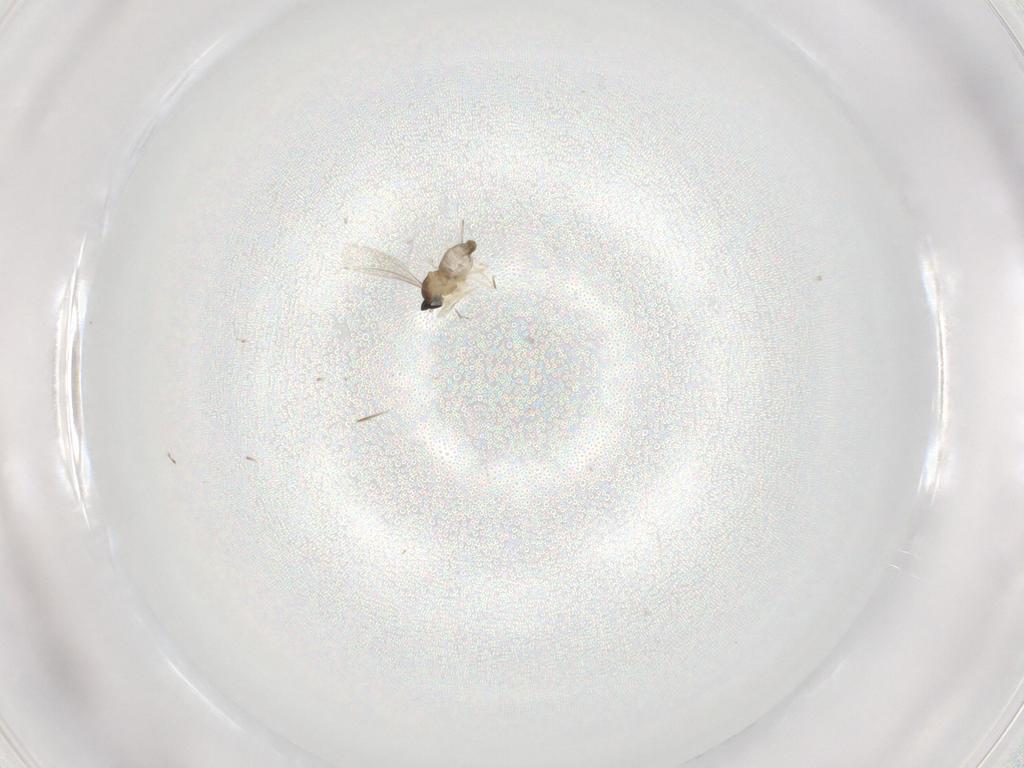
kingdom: Animalia
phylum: Arthropoda
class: Insecta
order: Diptera
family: Cecidomyiidae
